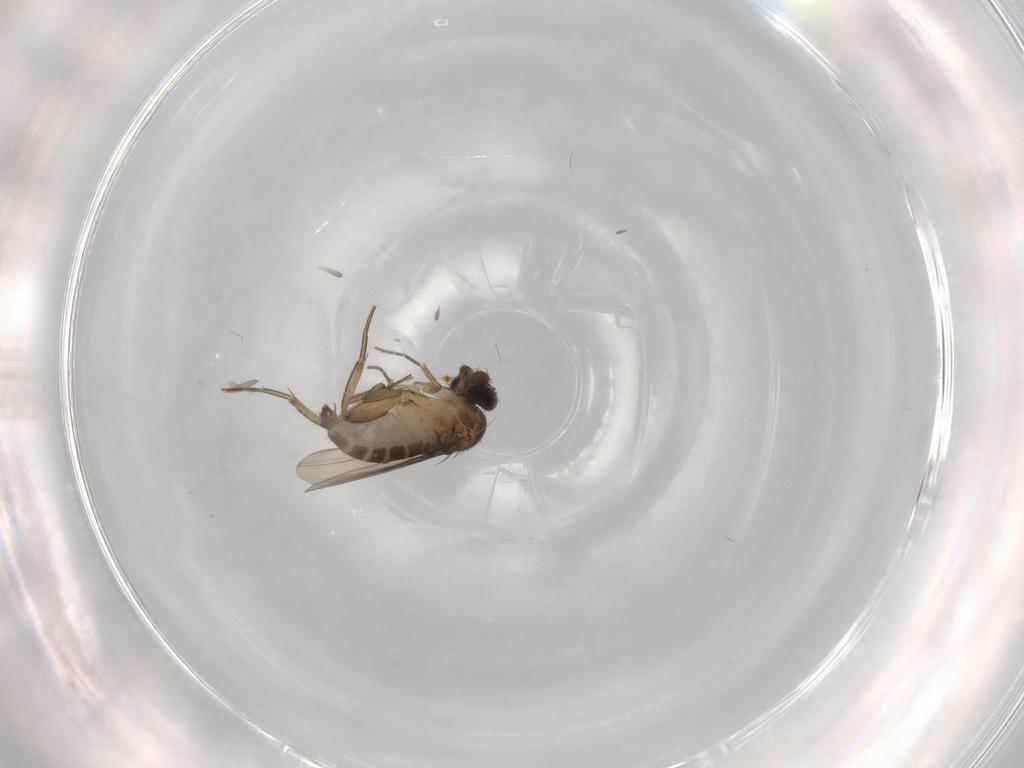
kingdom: Animalia
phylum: Arthropoda
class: Insecta
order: Diptera
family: Phoridae
